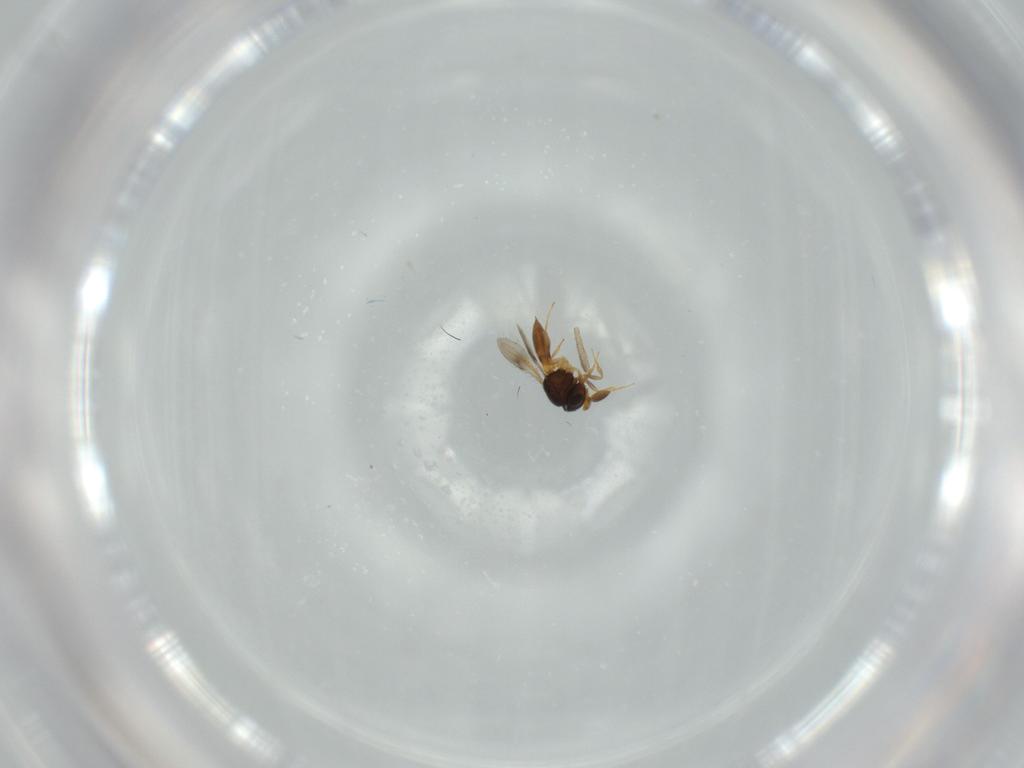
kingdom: Animalia
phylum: Arthropoda
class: Insecta
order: Hymenoptera
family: Scelionidae
